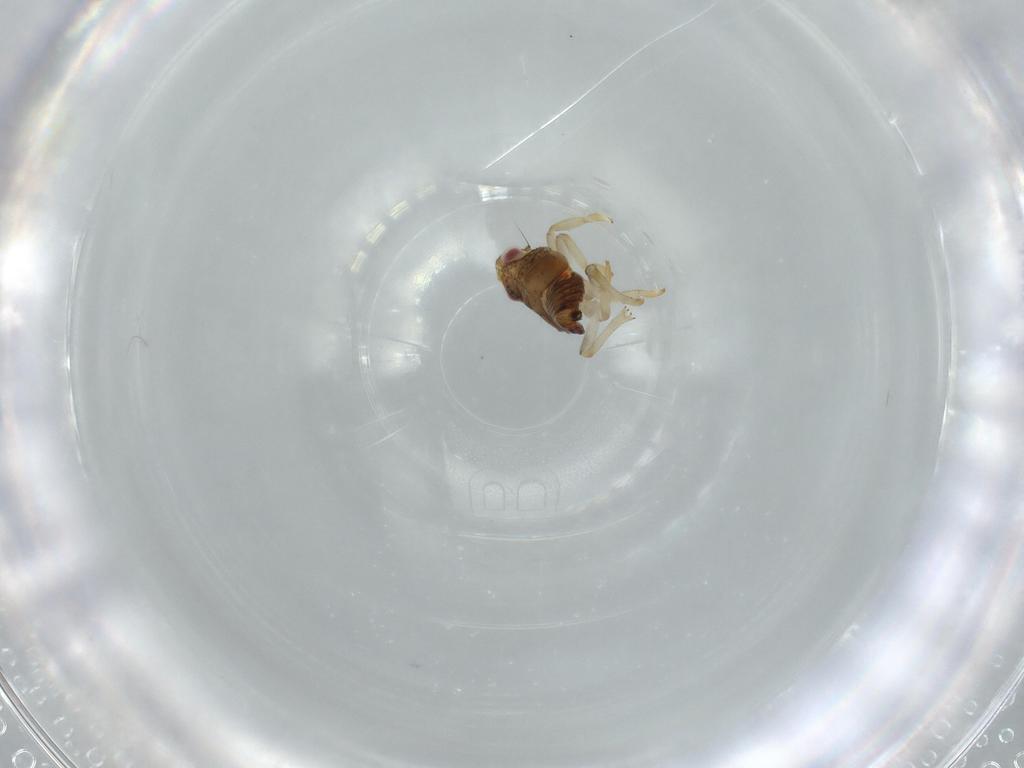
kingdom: Animalia
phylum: Arthropoda
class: Insecta
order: Hemiptera
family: Issidae
